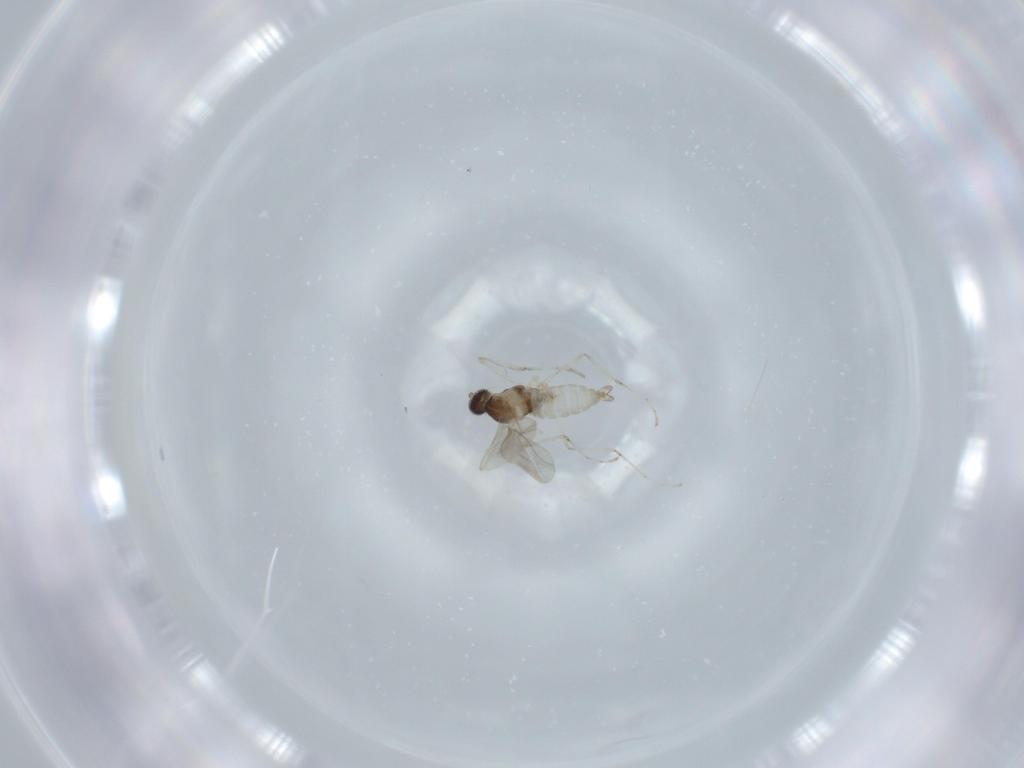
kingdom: Animalia
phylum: Arthropoda
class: Insecta
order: Diptera
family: Cecidomyiidae
